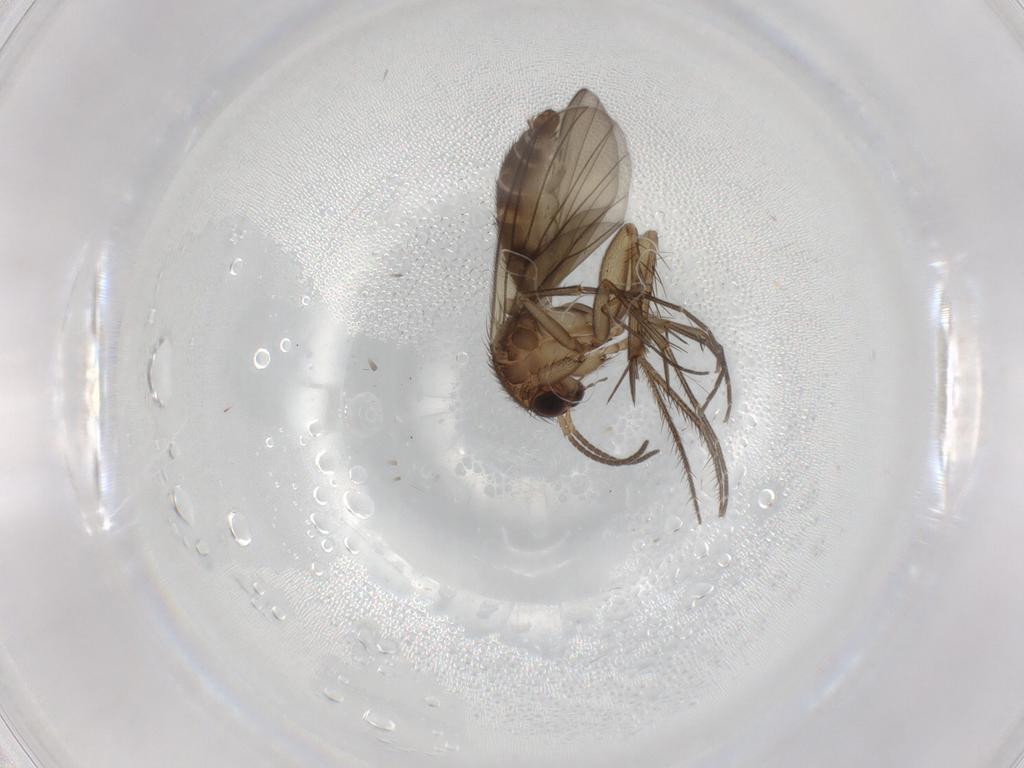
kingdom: Animalia
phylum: Arthropoda
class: Insecta
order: Diptera
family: Mycetophilidae
